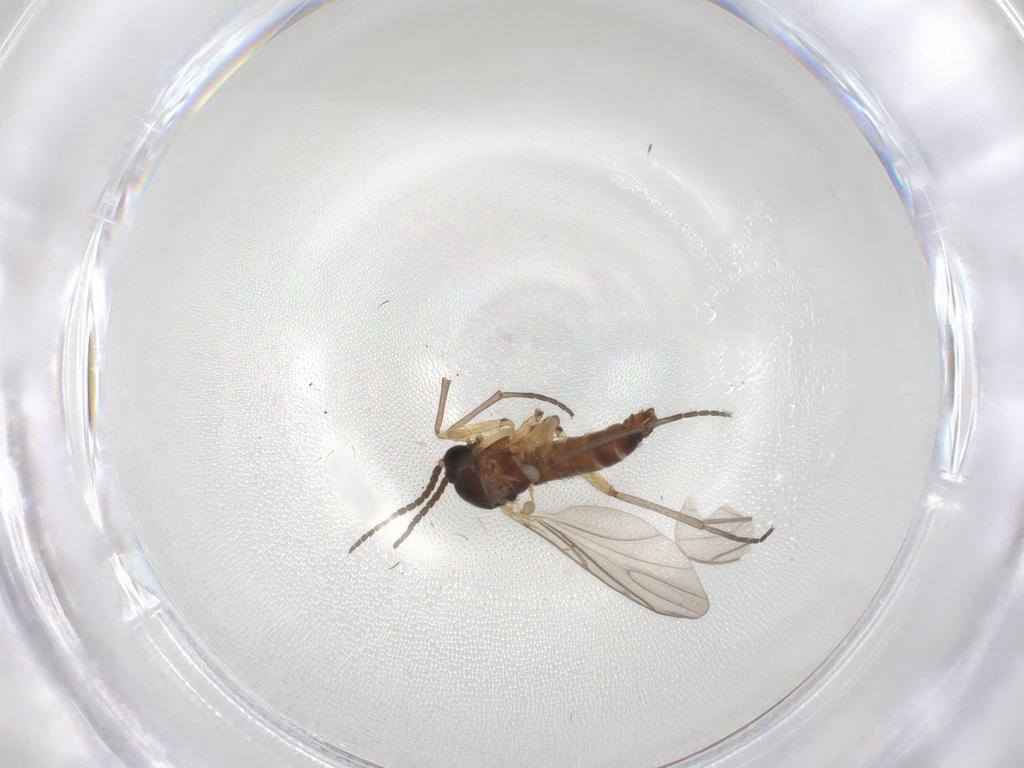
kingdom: Animalia
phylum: Arthropoda
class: Insecta
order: Diptera
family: Sciaridae
